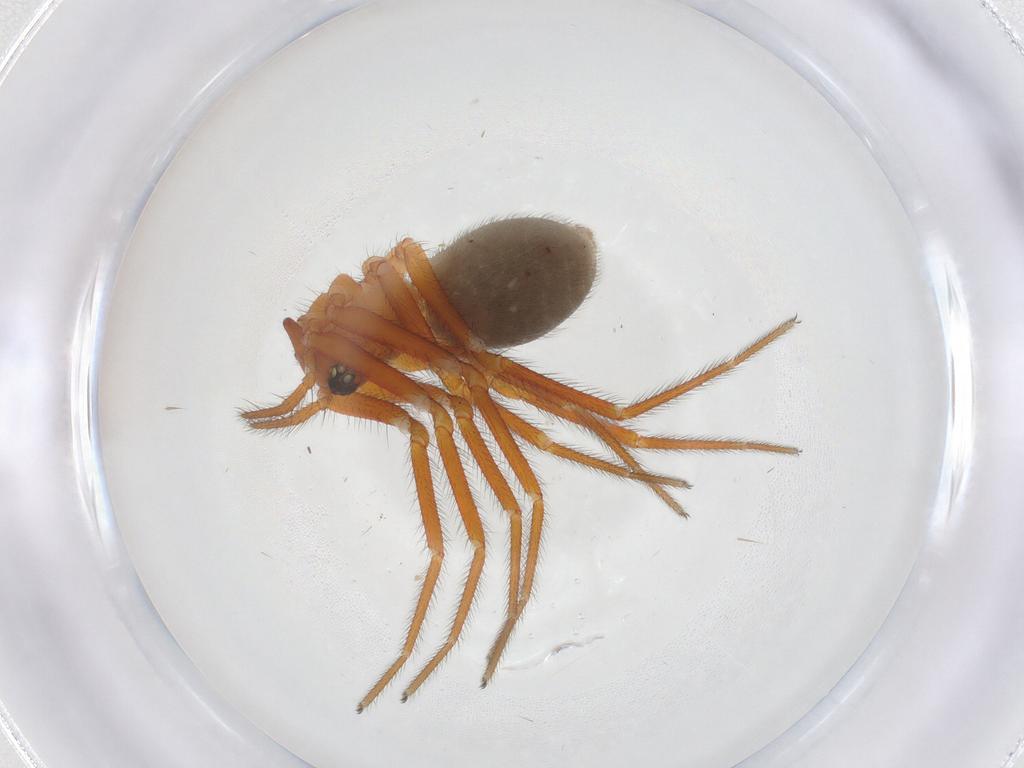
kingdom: Animalia
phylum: Arthropoda
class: Arachnida
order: Araneae
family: Linyphiidae
